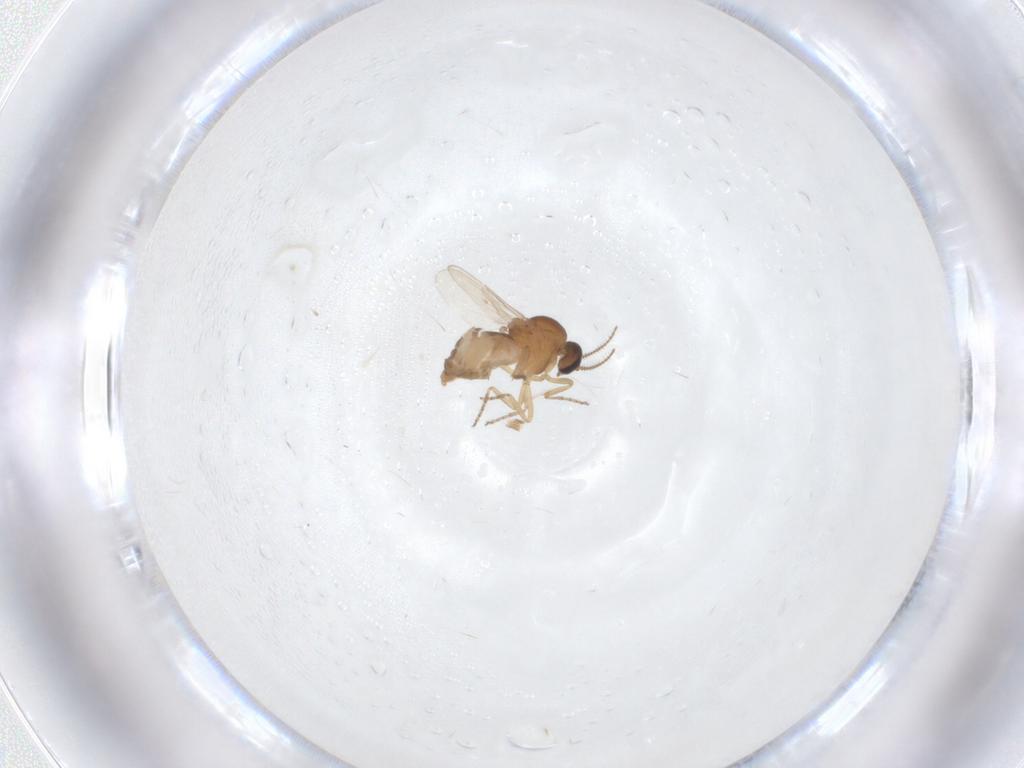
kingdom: Animalia
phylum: Arthropoda
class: Insecta
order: Diptera
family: Ceratopogonidae
